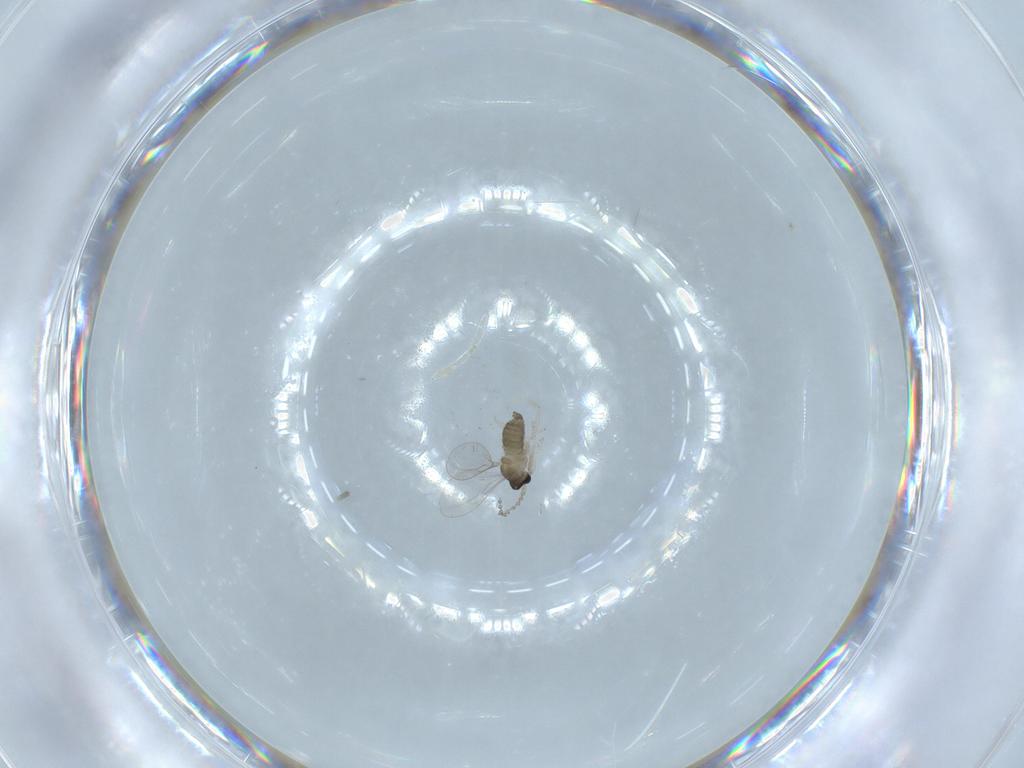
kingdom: Animalia
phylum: Arthropoda
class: Insecta
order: Diptera
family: Cecidomyiidae
